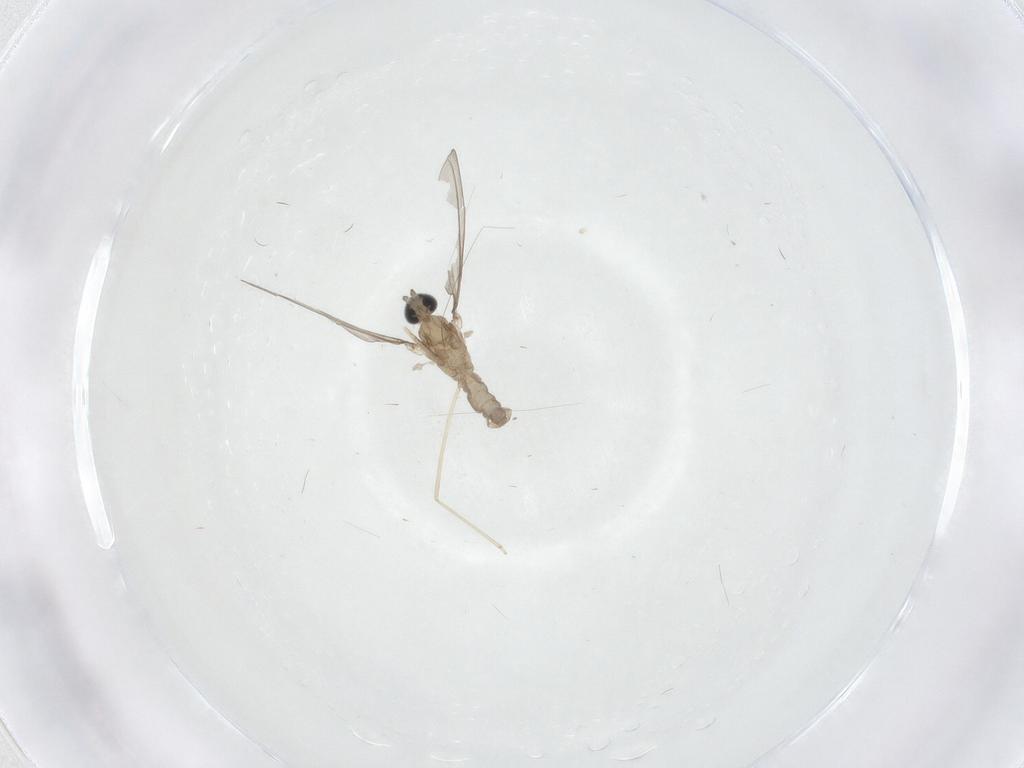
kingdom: Animalia
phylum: Arthropoda
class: Insecta
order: Diptera
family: Cecidomyiidae
